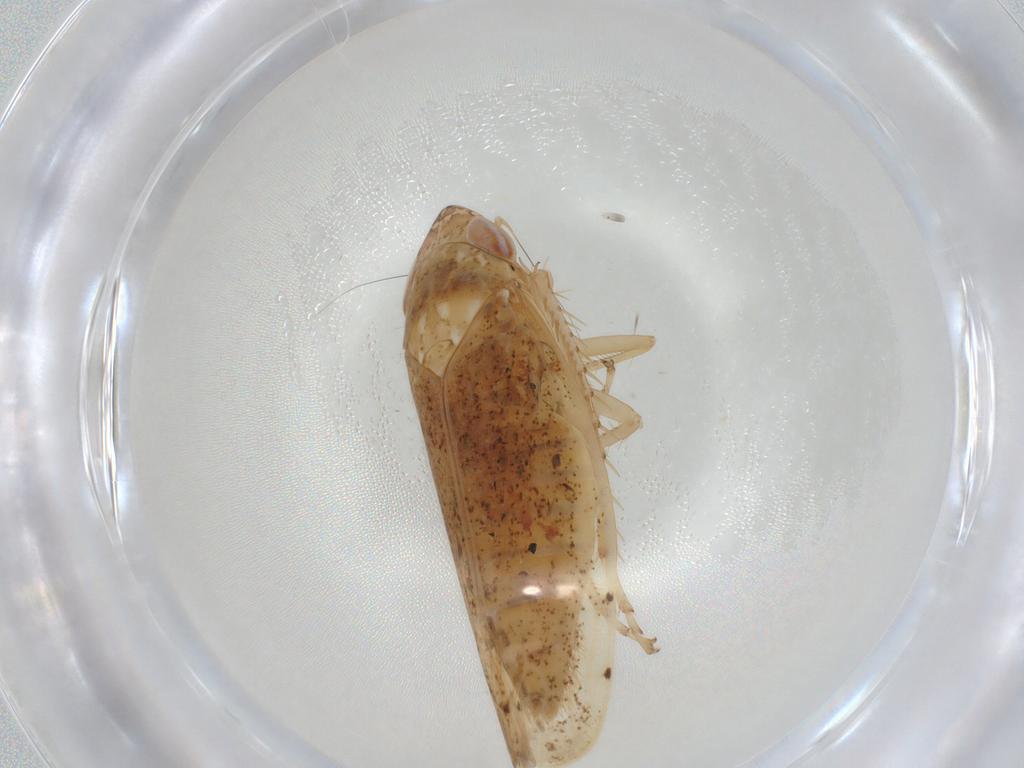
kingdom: Animalia
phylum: Arthropoda
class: Insecta
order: Hemiptera
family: Cicadellidae
